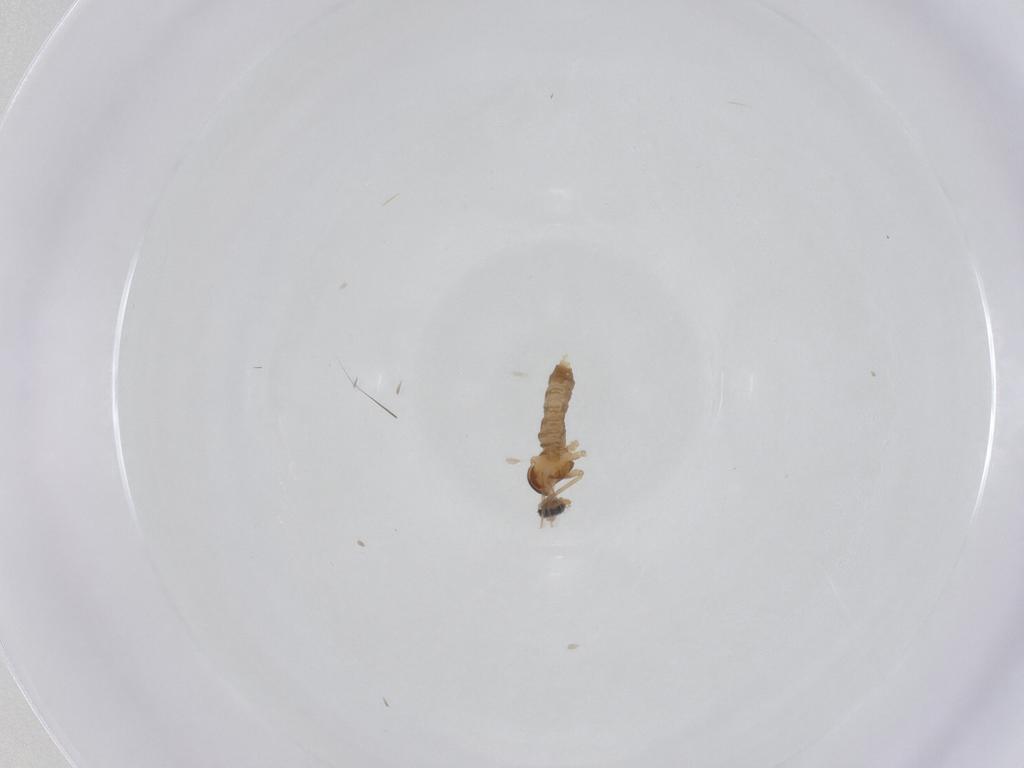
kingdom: Animalia
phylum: Arthropoda
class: Insecta
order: Diptera
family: Cecidomyiidae
